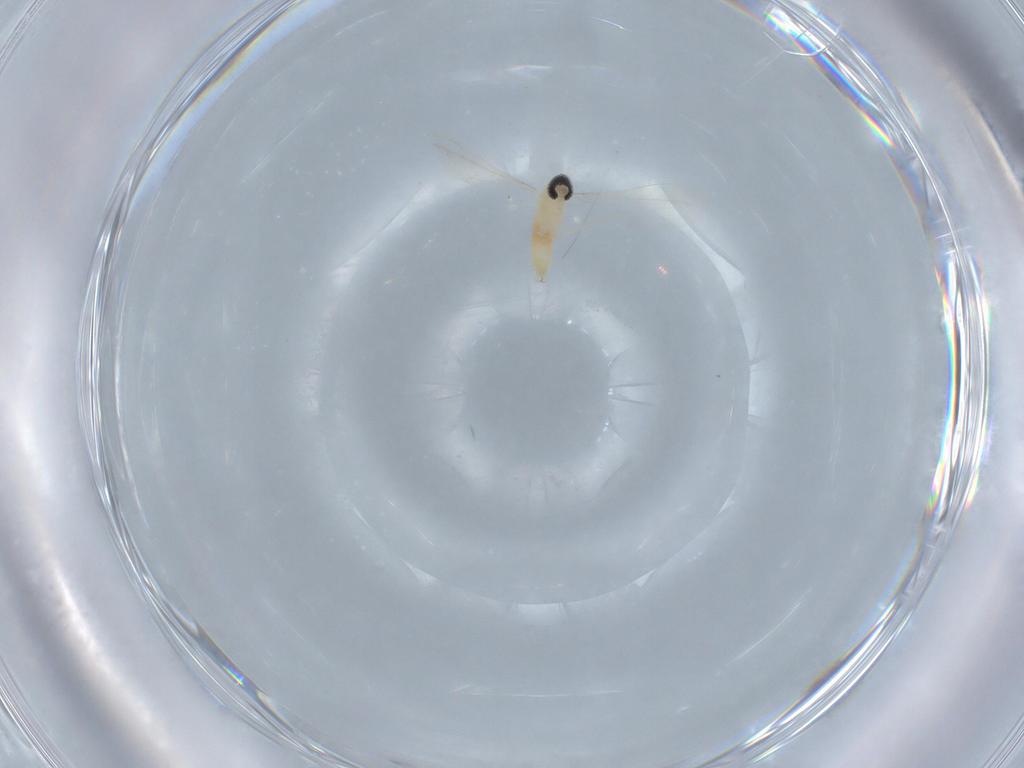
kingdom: Animalia
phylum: Arthropoda
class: Insecta
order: Diptera
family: Cecidomyiidae
